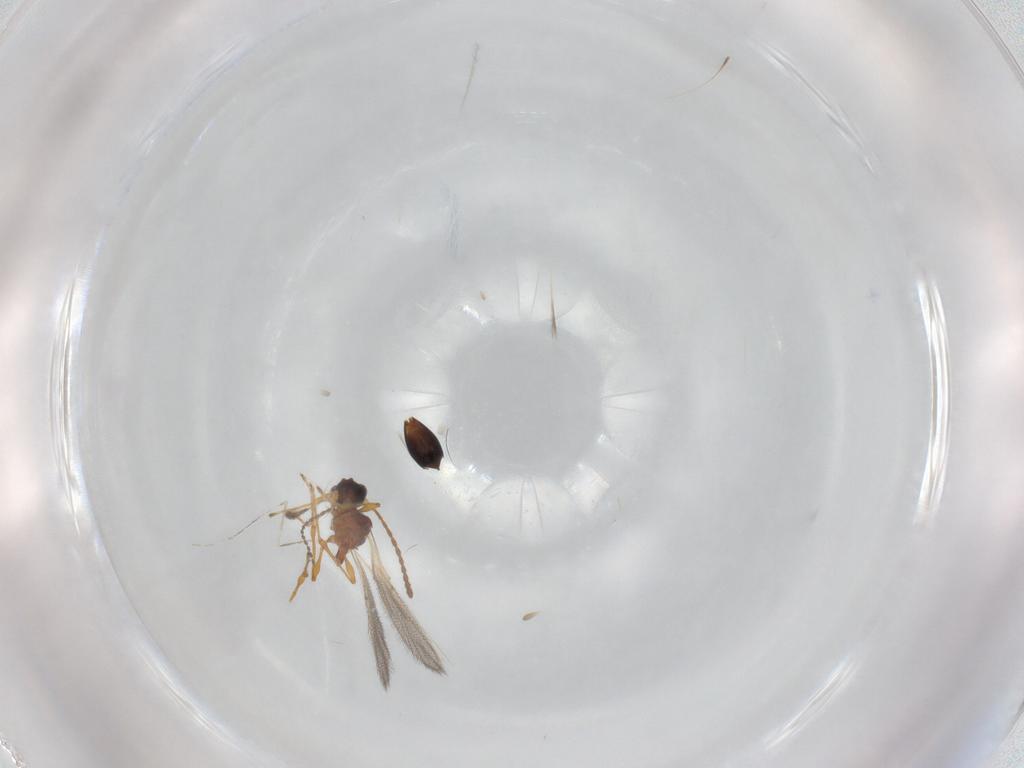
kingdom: Animalia
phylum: Arthropoda
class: Insecta
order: Hymenoptera
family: Diapriidae
